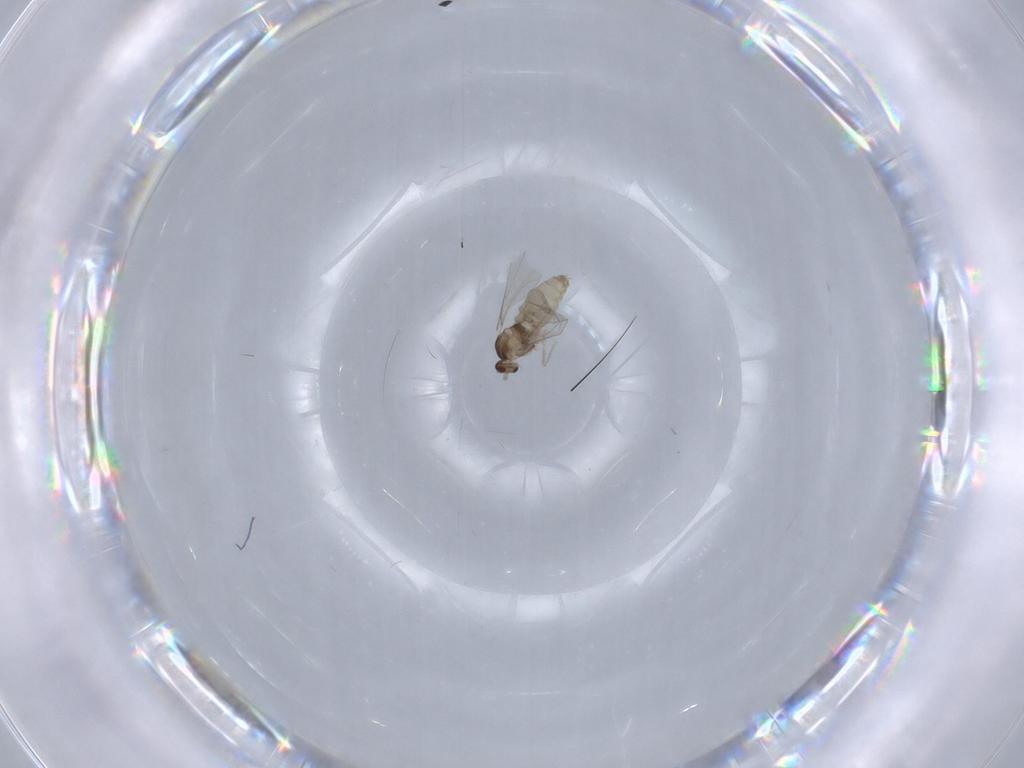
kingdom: Animalia
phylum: Arthropoda
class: Insecta
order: Diptera
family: Cecidomyiidae
